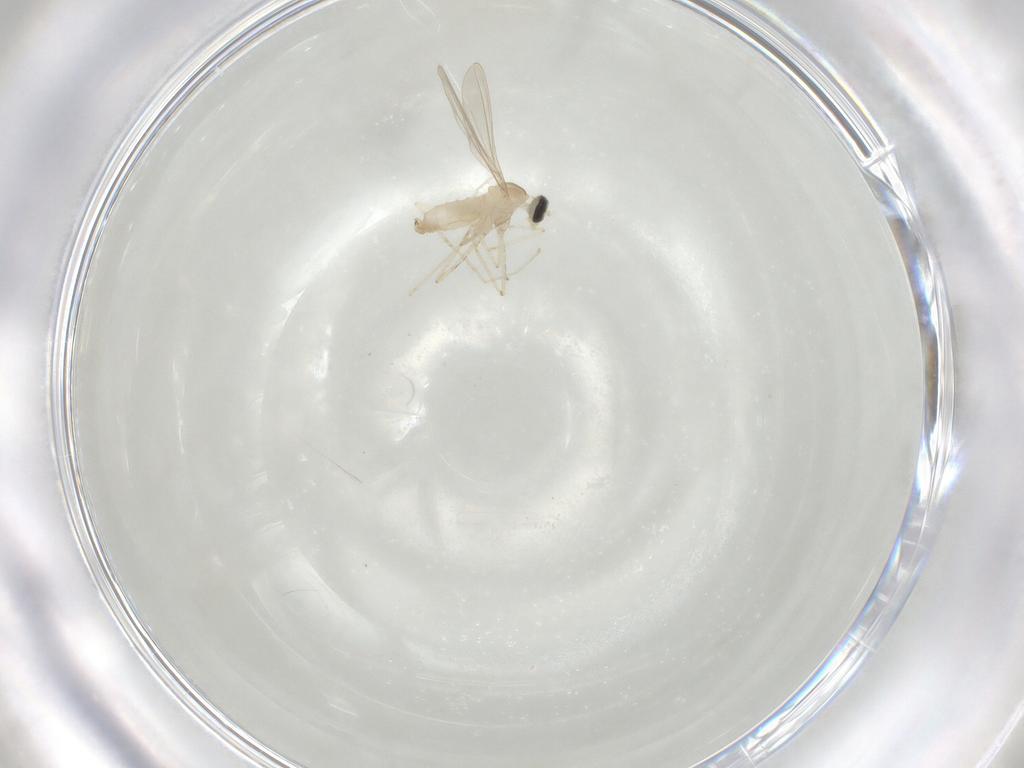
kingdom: Animalia
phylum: Arthropoda
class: Insecta
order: Diptera
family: Cecidomyiidae
